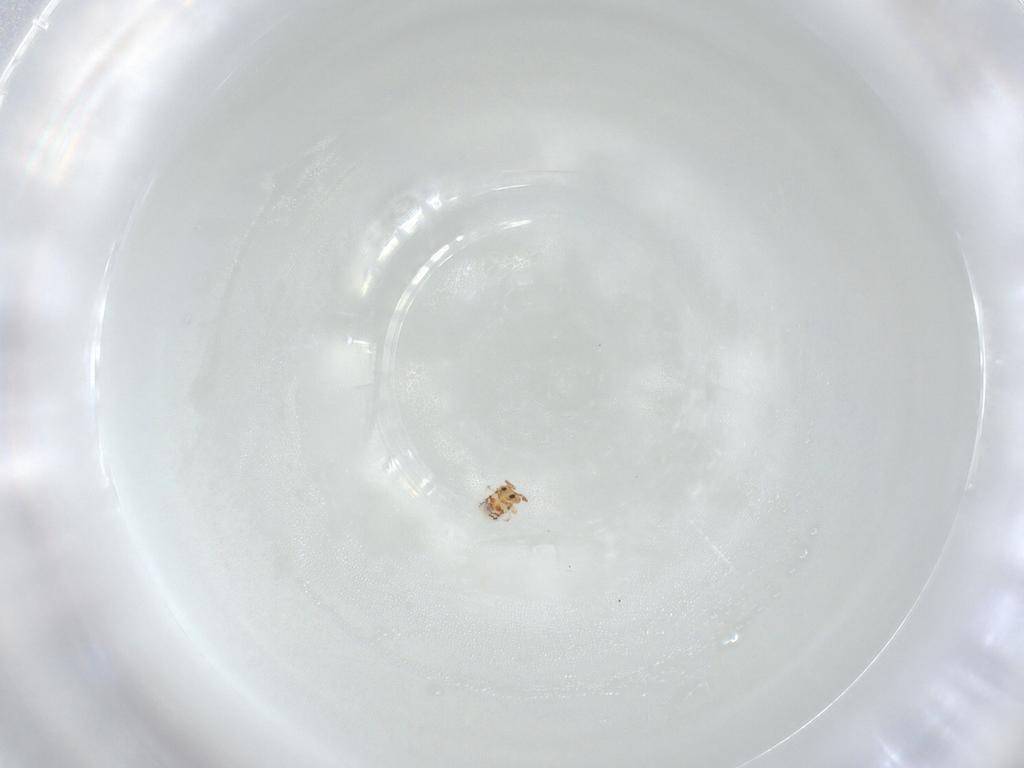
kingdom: Animalia
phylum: Arthropoda
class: Collembola
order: Symphypleona
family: Bourletiellidae
